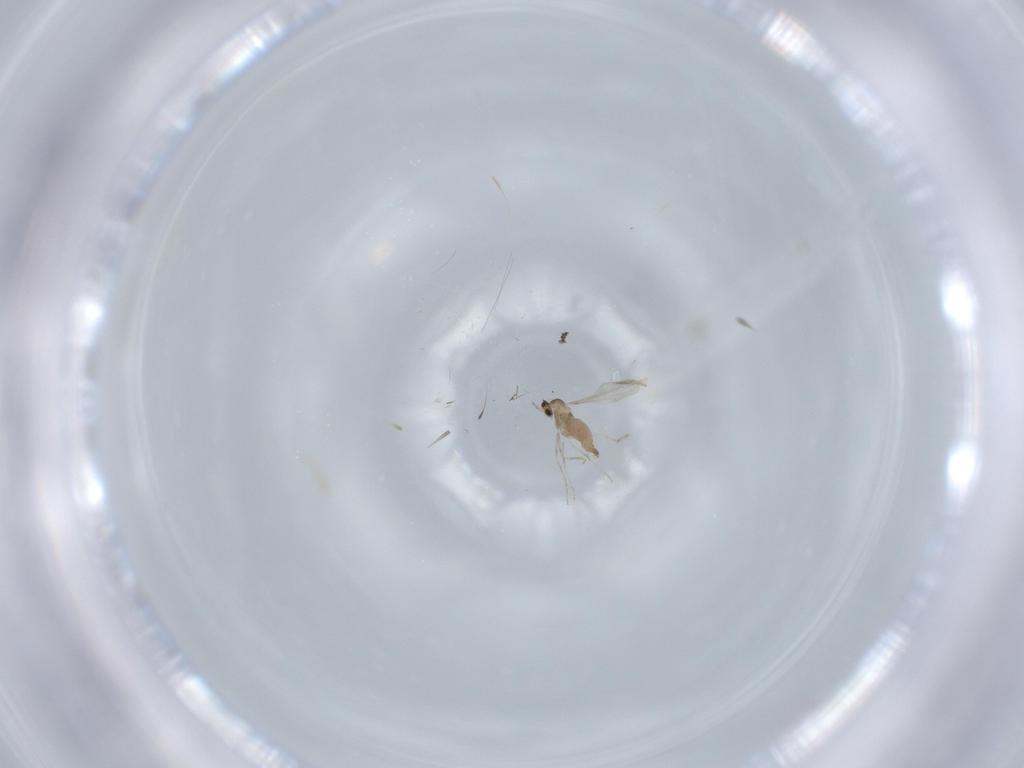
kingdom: Animalia
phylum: Arthropoda
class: Insecta
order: Diptera
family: Cecidomyiidae
